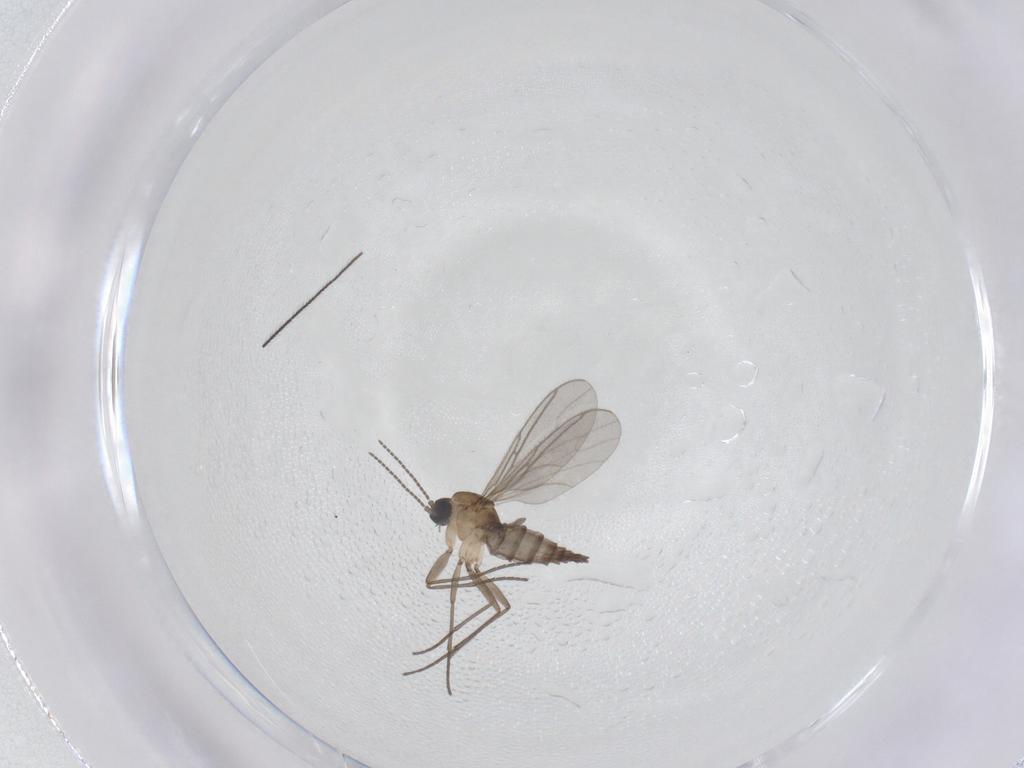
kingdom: Animalia
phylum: Arthropoda
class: Insecta
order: Diptera
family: Sciaridae
